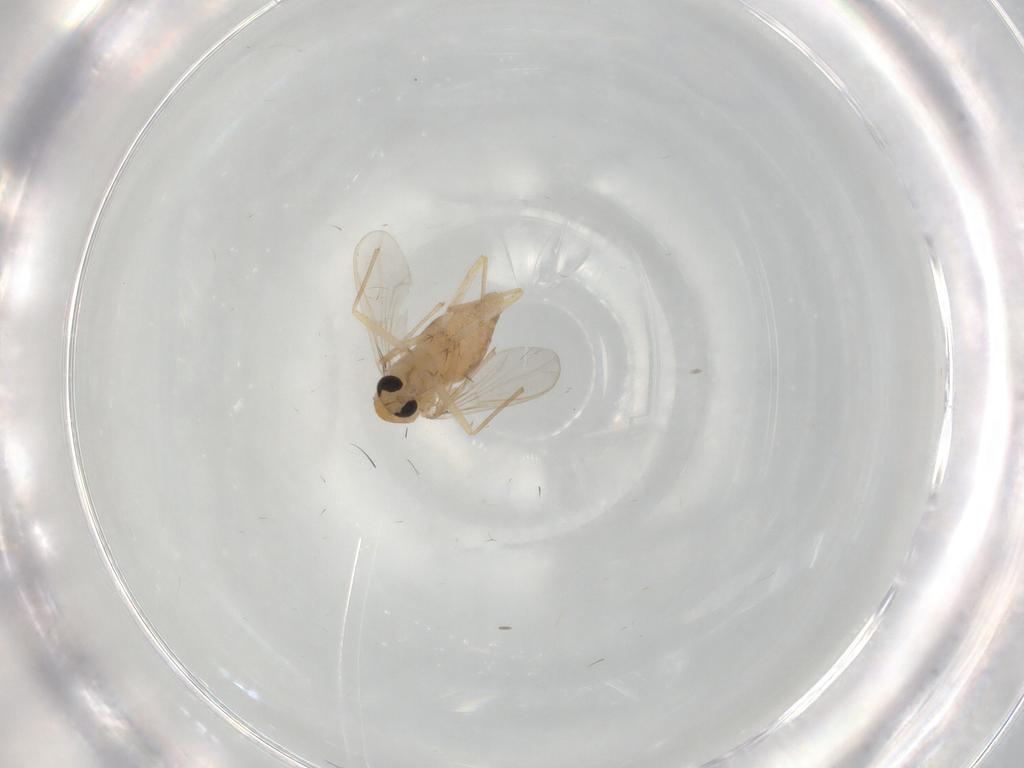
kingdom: Animalia
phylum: Arthropoda
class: Insecta
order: Diptera
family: Chironomidae
